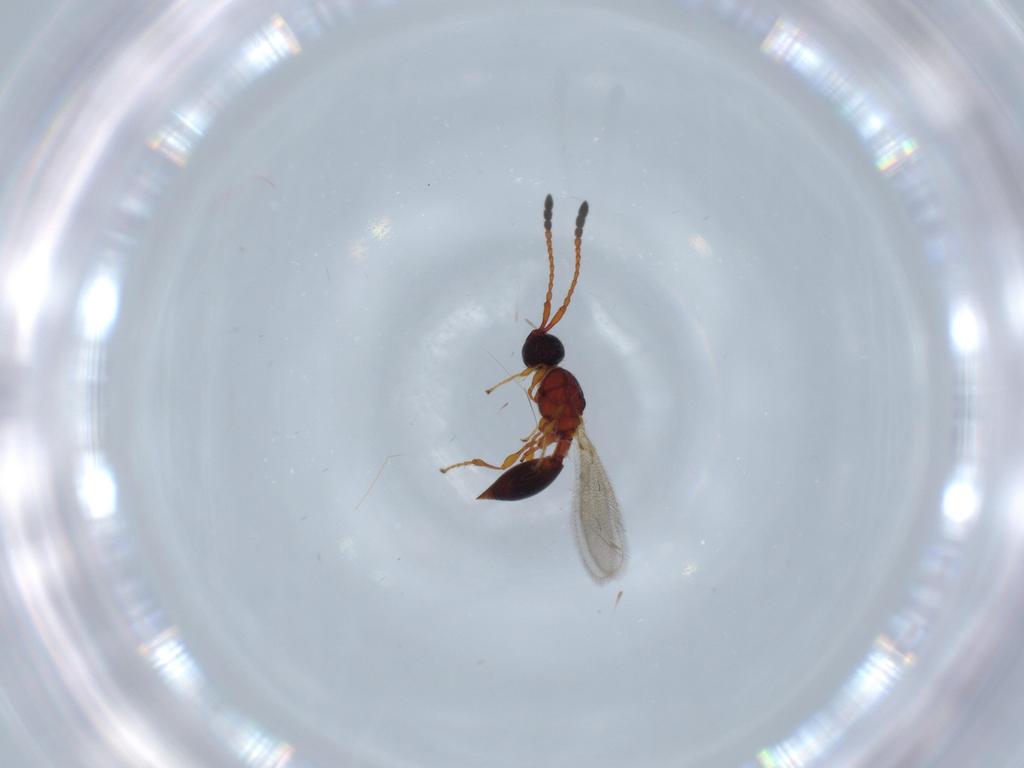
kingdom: Animalia
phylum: Arthropoda
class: Insecta
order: Hymenoptera
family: Diapriidae
